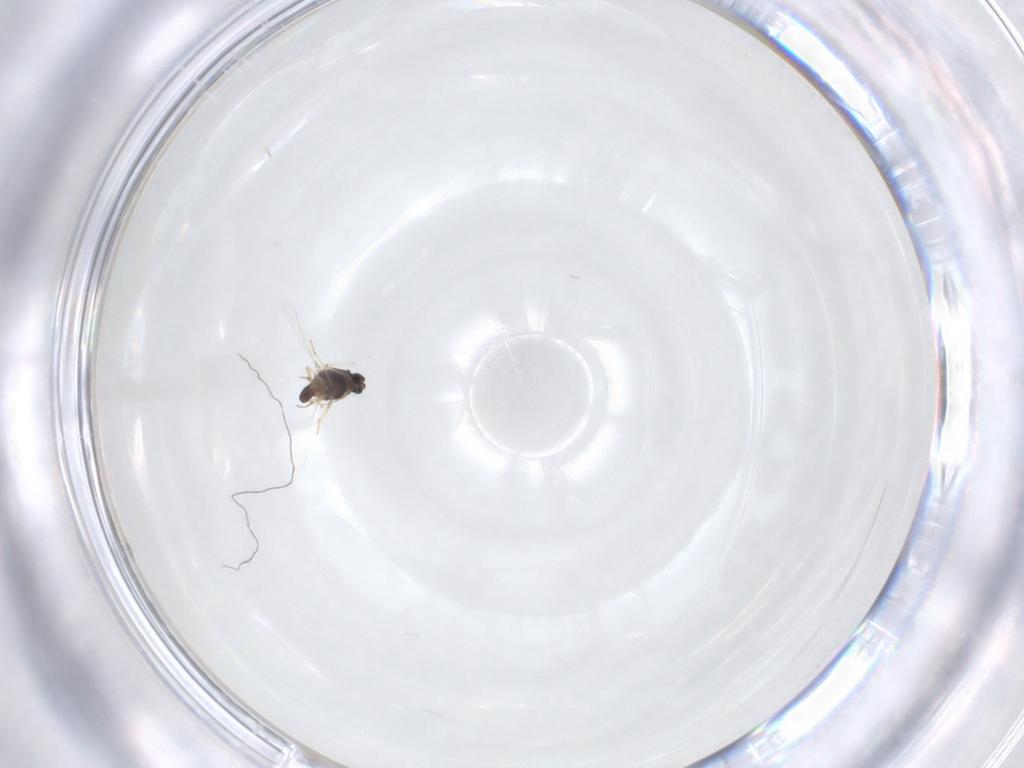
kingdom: Animalia
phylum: Arthropoda
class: Insecta
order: Diptera
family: Chironomidae
